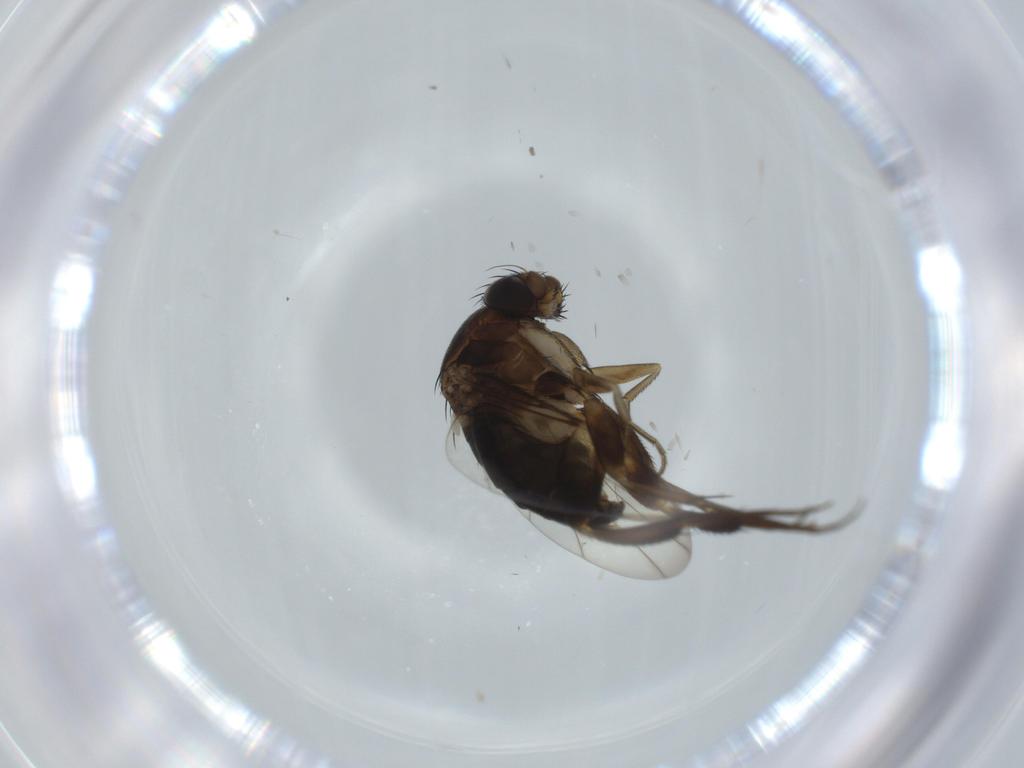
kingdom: Animalia
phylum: Arthropoda
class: Insecta
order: Diptera
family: Phoridae
